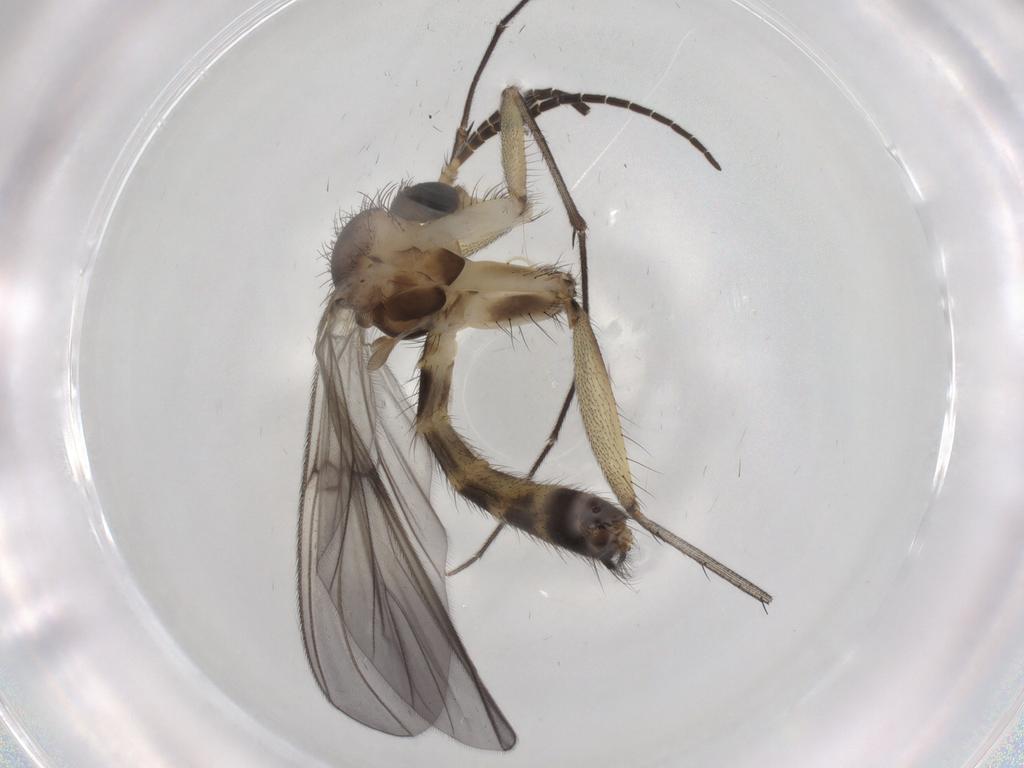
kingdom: Animalia
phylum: Arthropoda
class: Insecta
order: Diptera
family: Mycetophilidae
